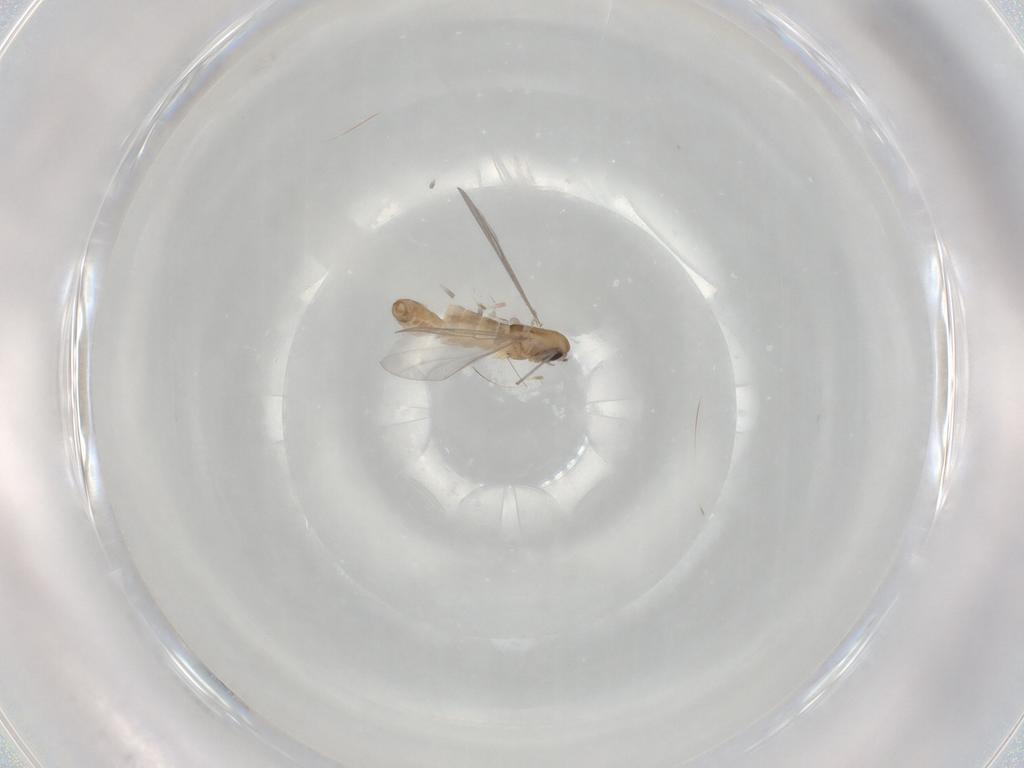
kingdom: Animalia
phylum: Arthropoda
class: Insecta
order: Diptera
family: Chironomidae
